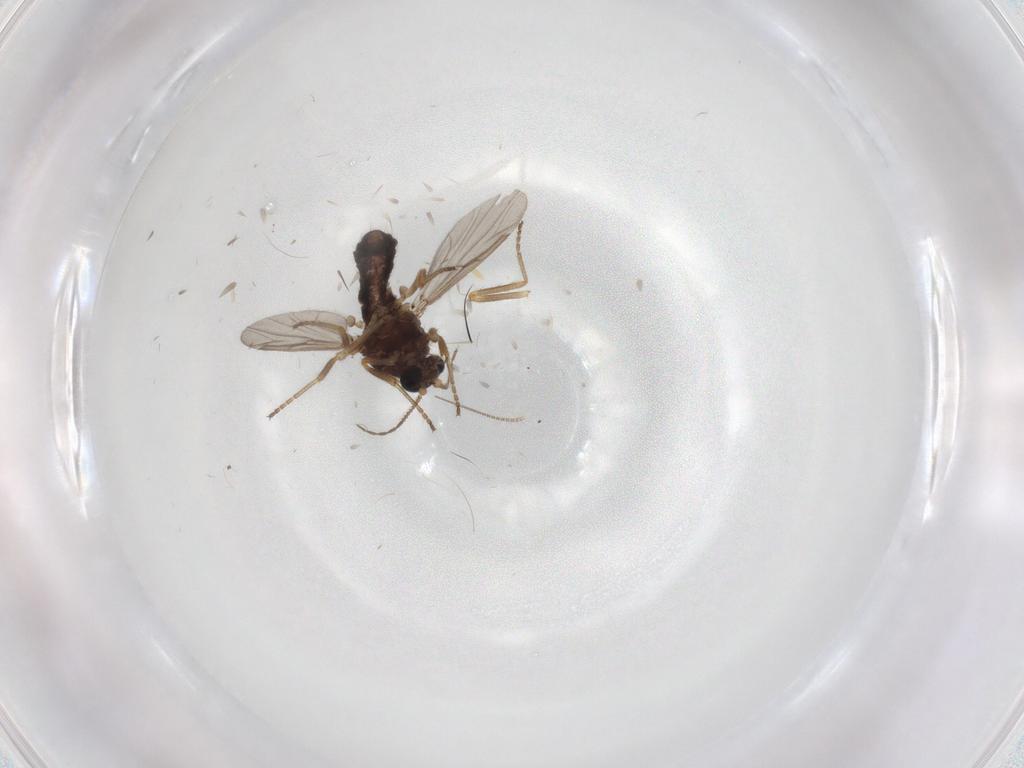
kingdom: Animalia
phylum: Arthropoda
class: Insecta
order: Diptera
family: Ceratopogonidae
